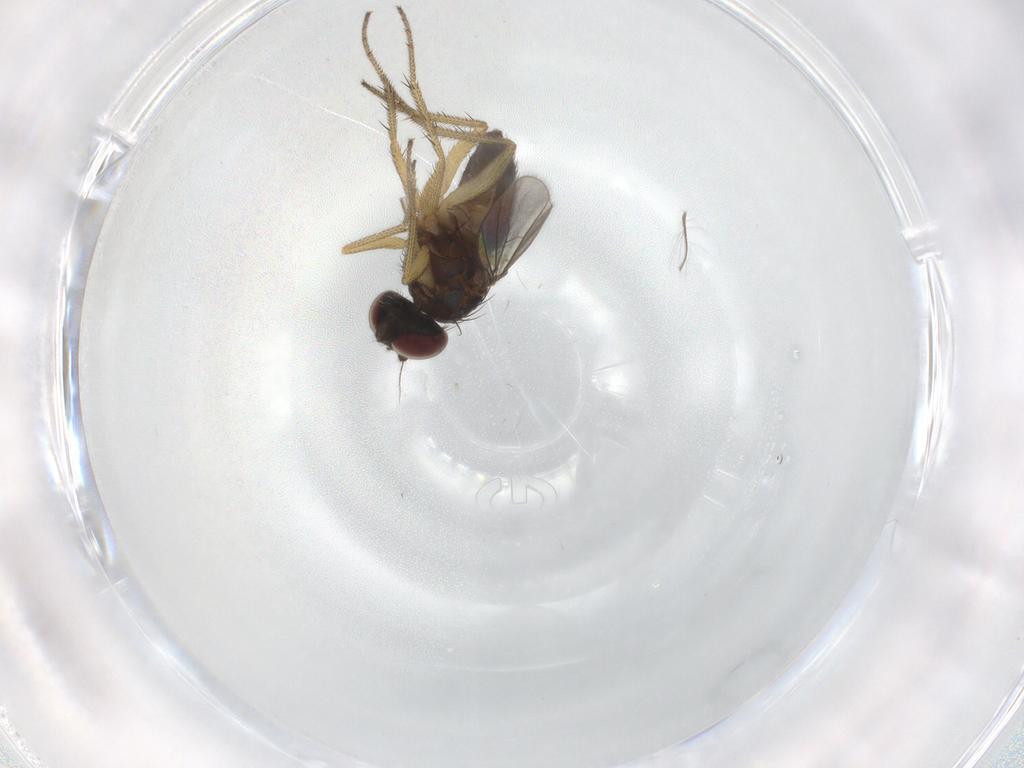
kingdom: Animalia
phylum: Arthropoda
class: Insecta
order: Diptera
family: Dolichopodidae
